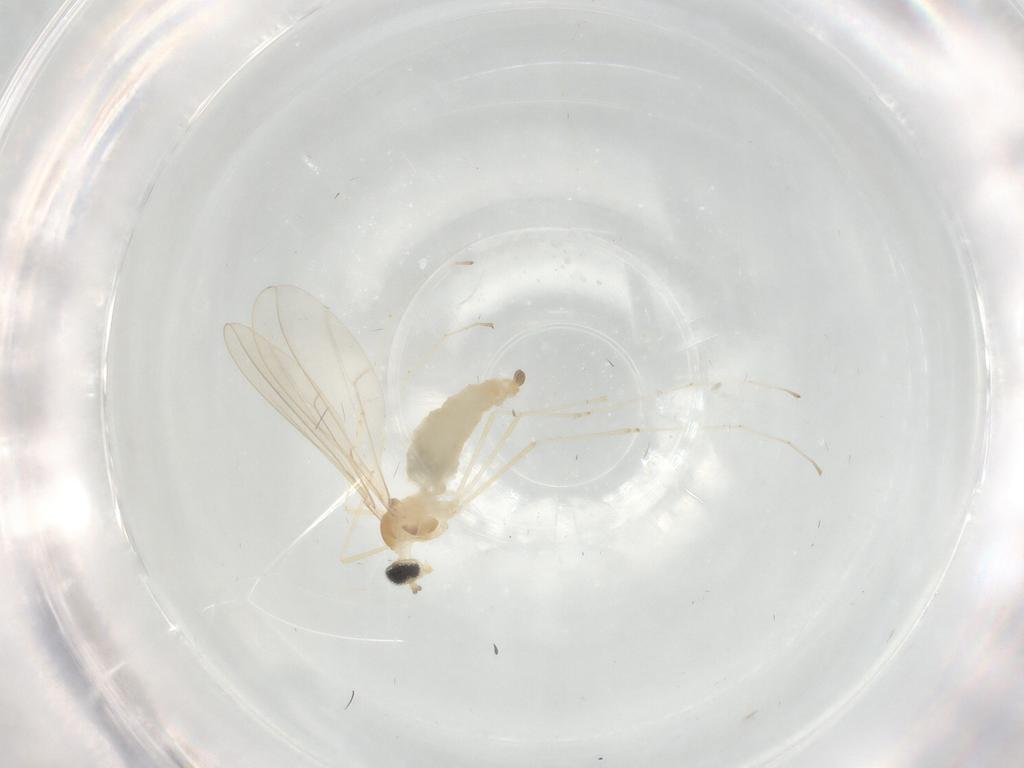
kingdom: Animalia
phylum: Arthropoda
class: Insecta
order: Diptera
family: Cecidomyiidae
